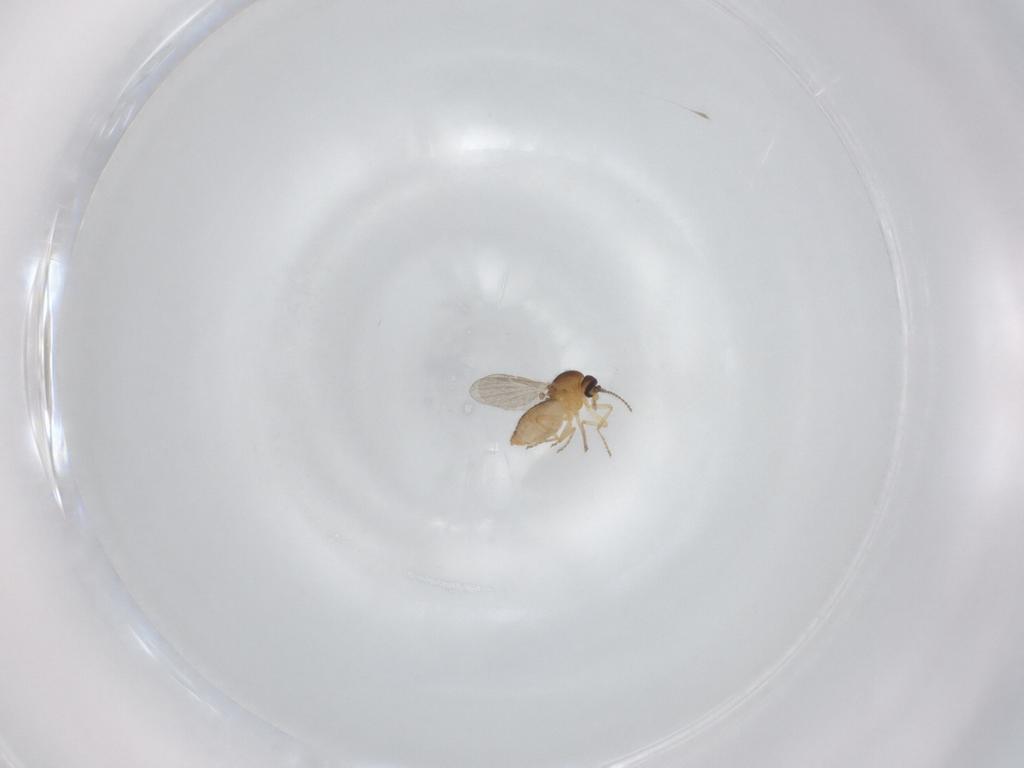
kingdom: Animalia
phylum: Arthropoda
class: Insecta
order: Diptera
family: Ceratopogonidae
